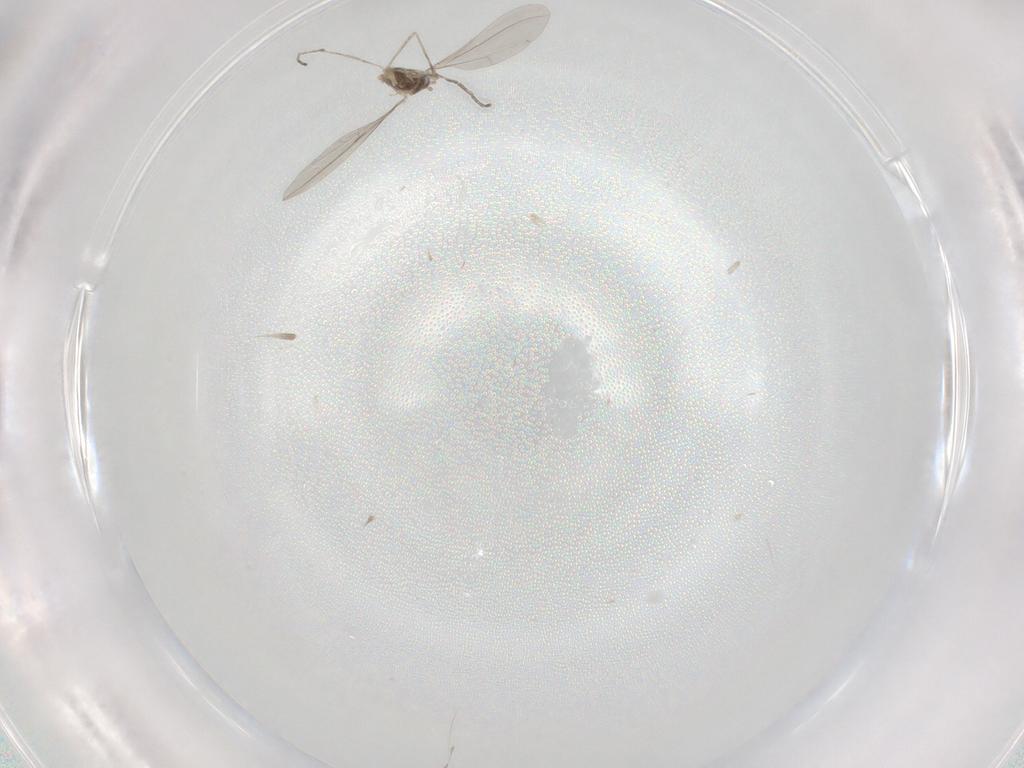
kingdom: Animalia
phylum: Arthropoda
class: Insecta
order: Diptera
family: Cecidomyiidae
